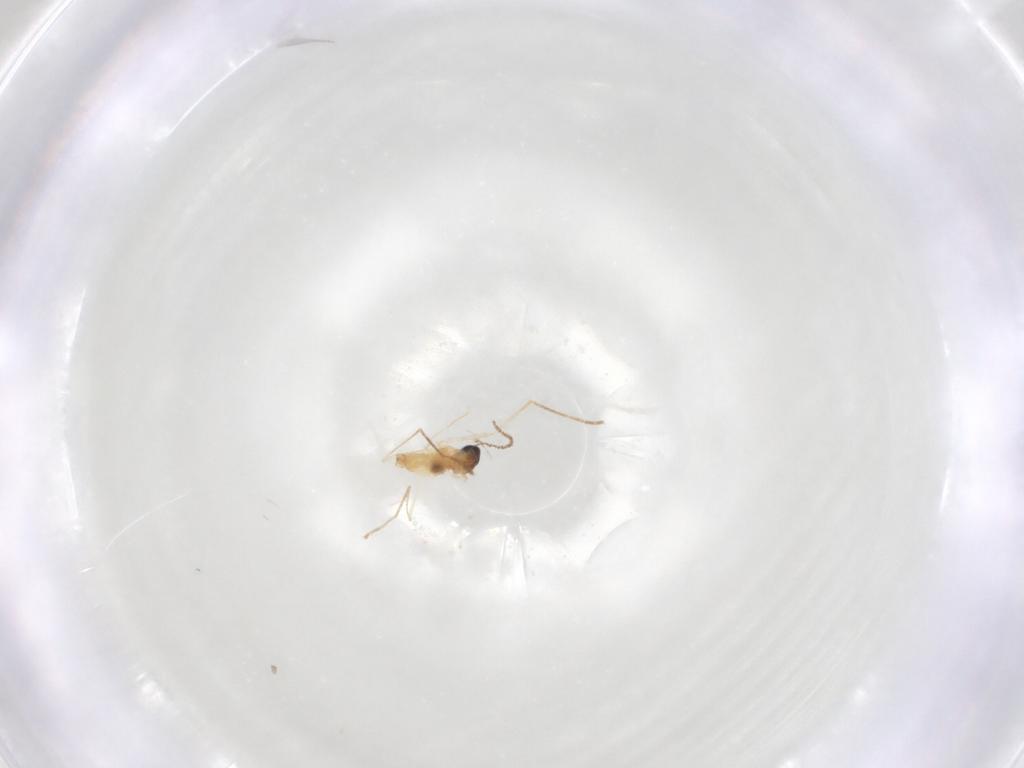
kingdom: Animalia
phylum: Arthropoda
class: Insecta
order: Diptera
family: Cecidomyiidae
